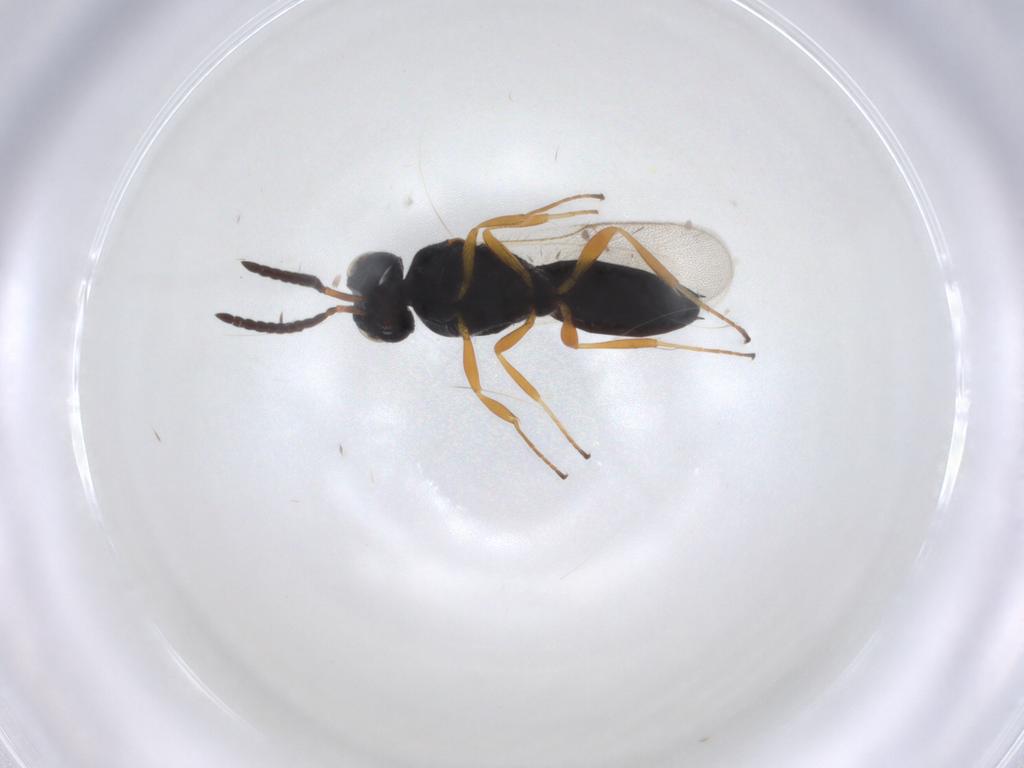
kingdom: Animalia
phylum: Arthropoda
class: Insecta
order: Hymenoptera
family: Scelionidae
